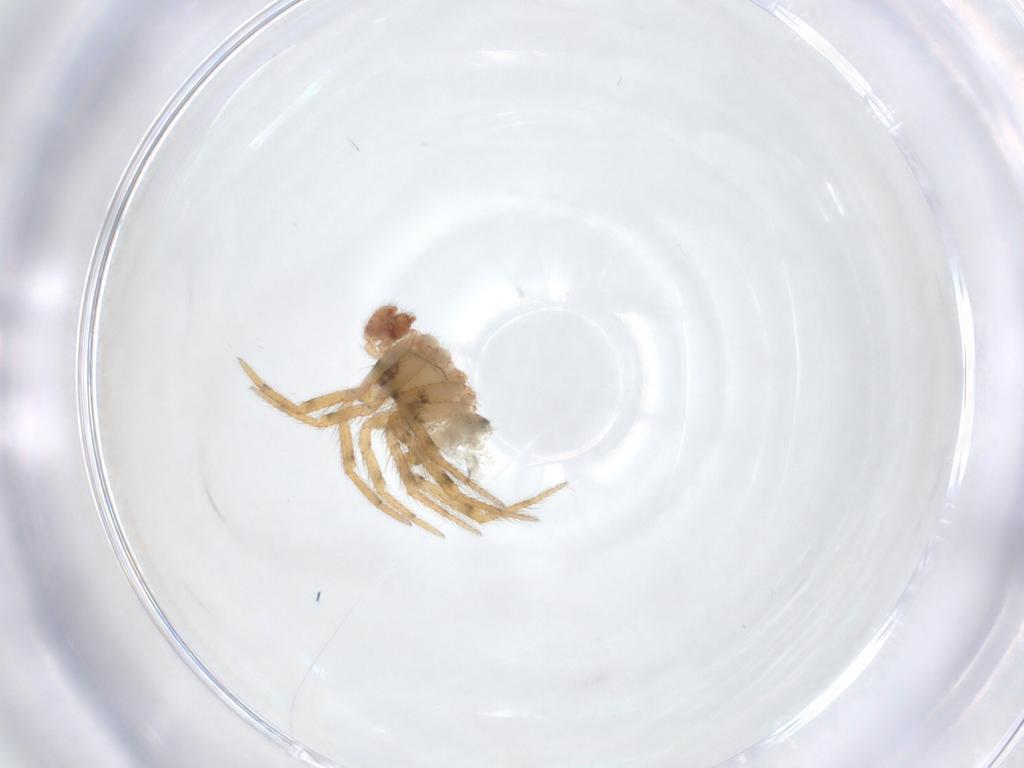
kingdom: Animalia
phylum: Arthropoda
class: Arachnida
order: Araneae
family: Theridiidae
